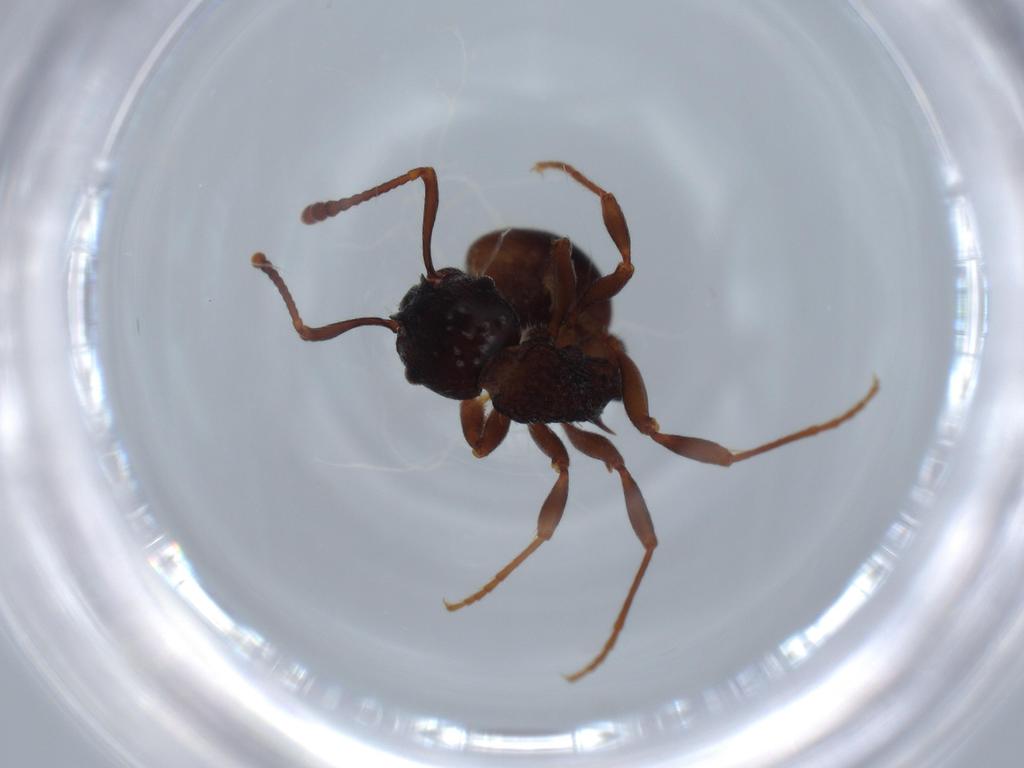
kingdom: Animalia
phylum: Arthropoda
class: Insecta
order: Hymenoptera
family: Formicidae
